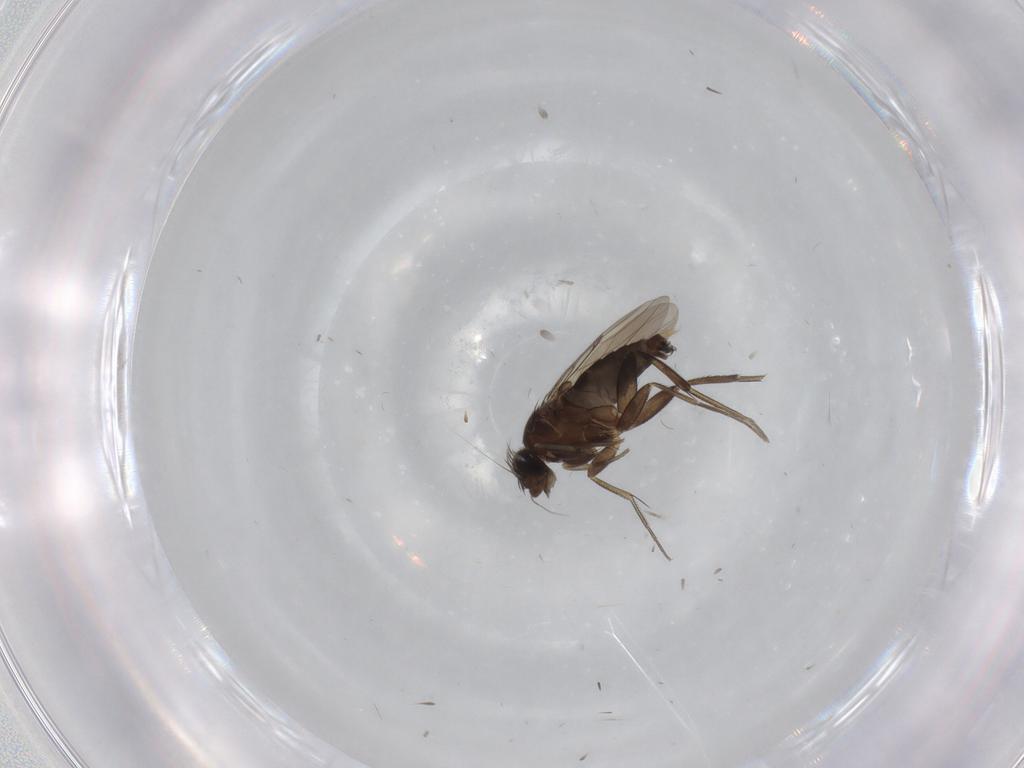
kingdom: Animalia
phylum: Arthropoda
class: Insecta
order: Diptera
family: Phoridae
